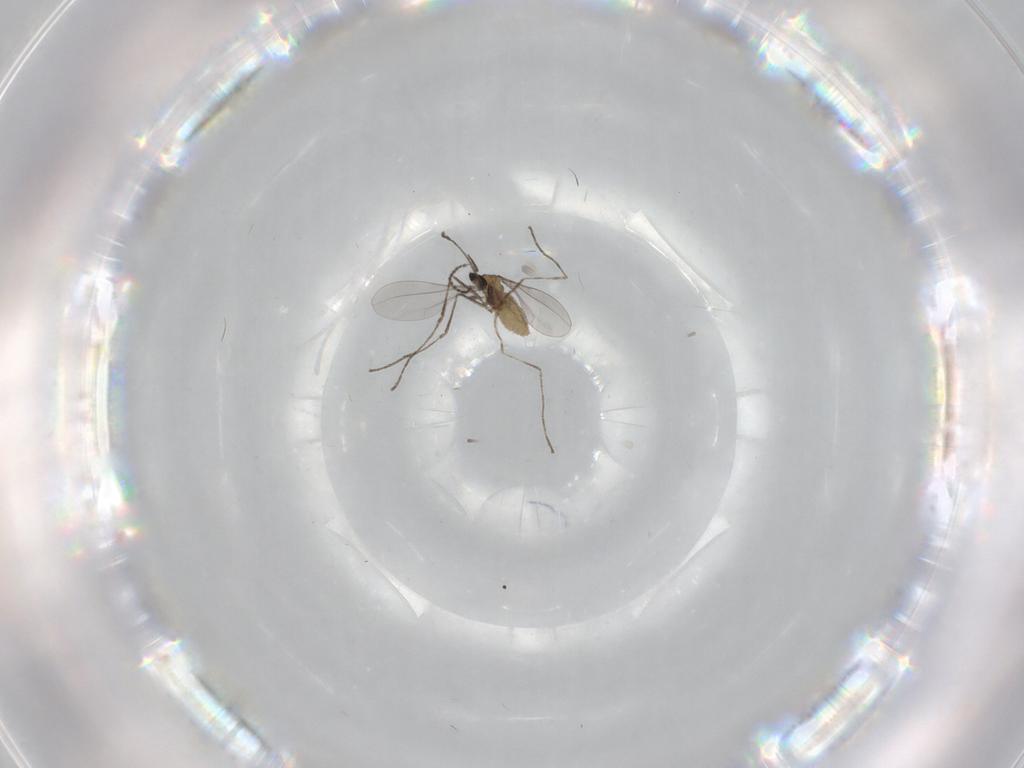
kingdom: Animalia
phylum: Arthropoda
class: Insecta
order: Diptera
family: Cecidomyiidae
